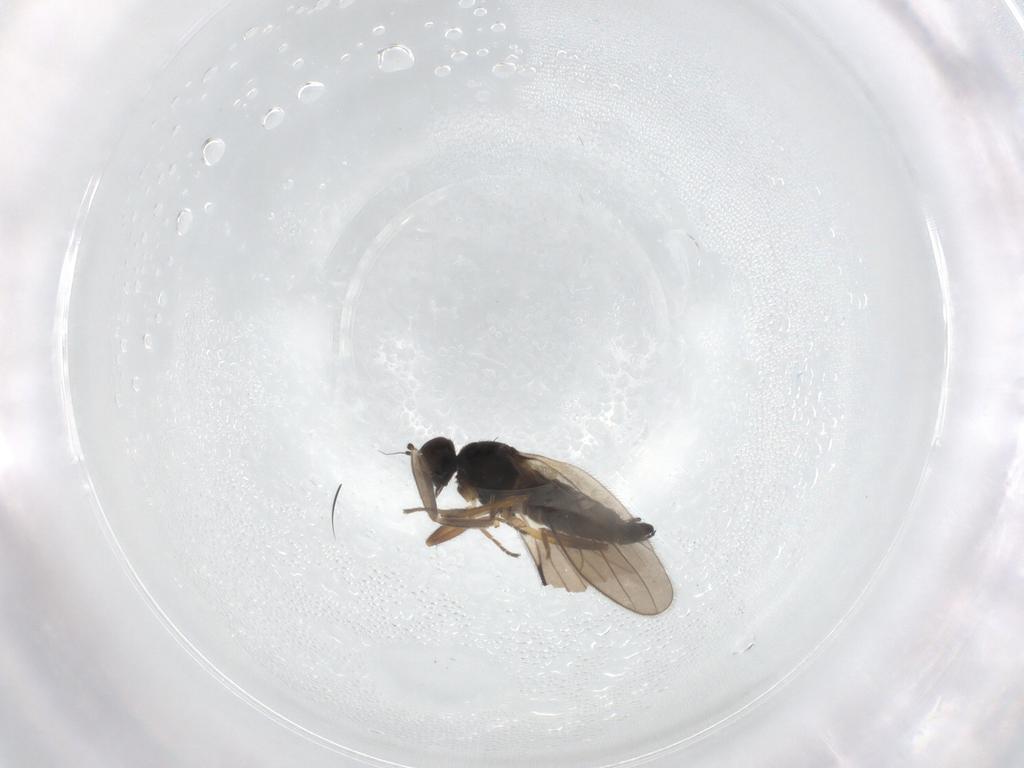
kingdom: Animalia
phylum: Arthropoda
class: Insecta
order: Diptera
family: Hybotidae
